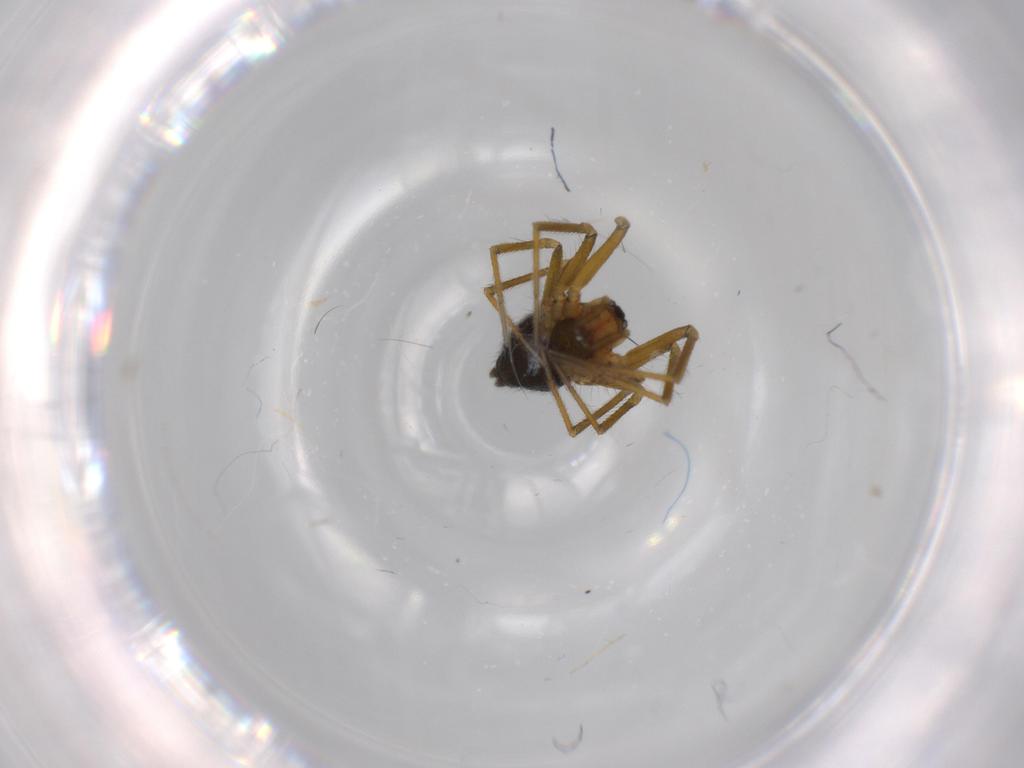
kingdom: Animalia
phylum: Arthropoda
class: Arachnida
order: Araneae
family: Linyphiidae
